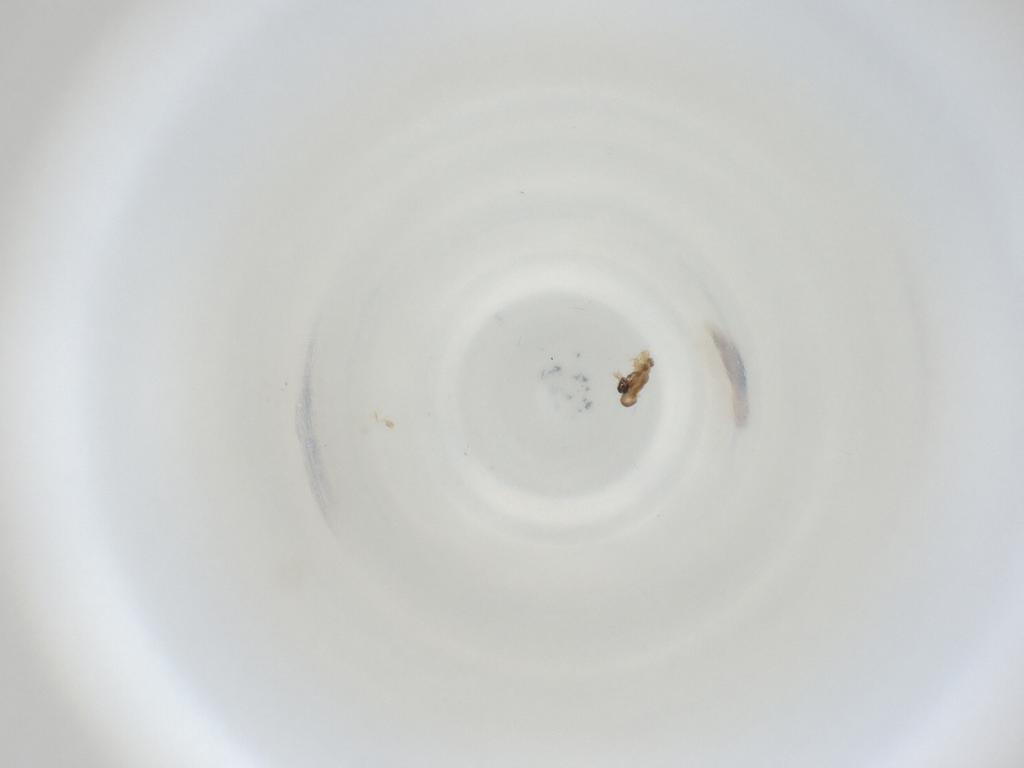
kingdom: Animalia
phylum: Arthropoda
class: Insecta
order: Diptera
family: Cecidomyiidae
